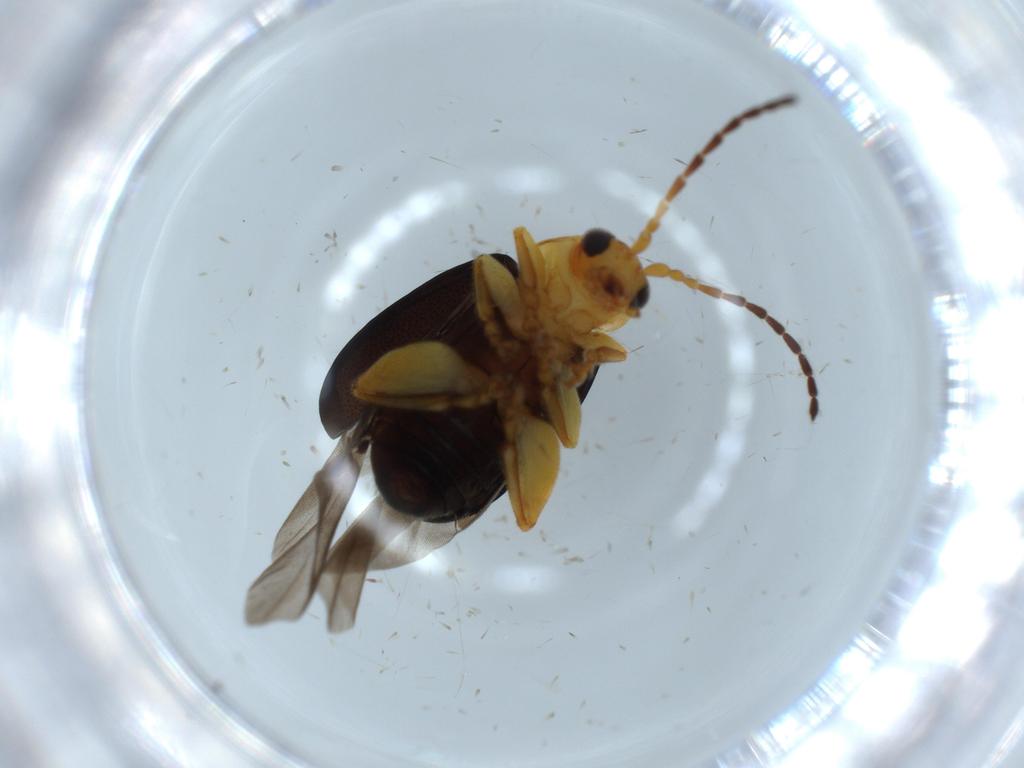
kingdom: Animalia
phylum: Arthropoda
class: Insecta
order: Coleoptera
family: Chrysomelidae
